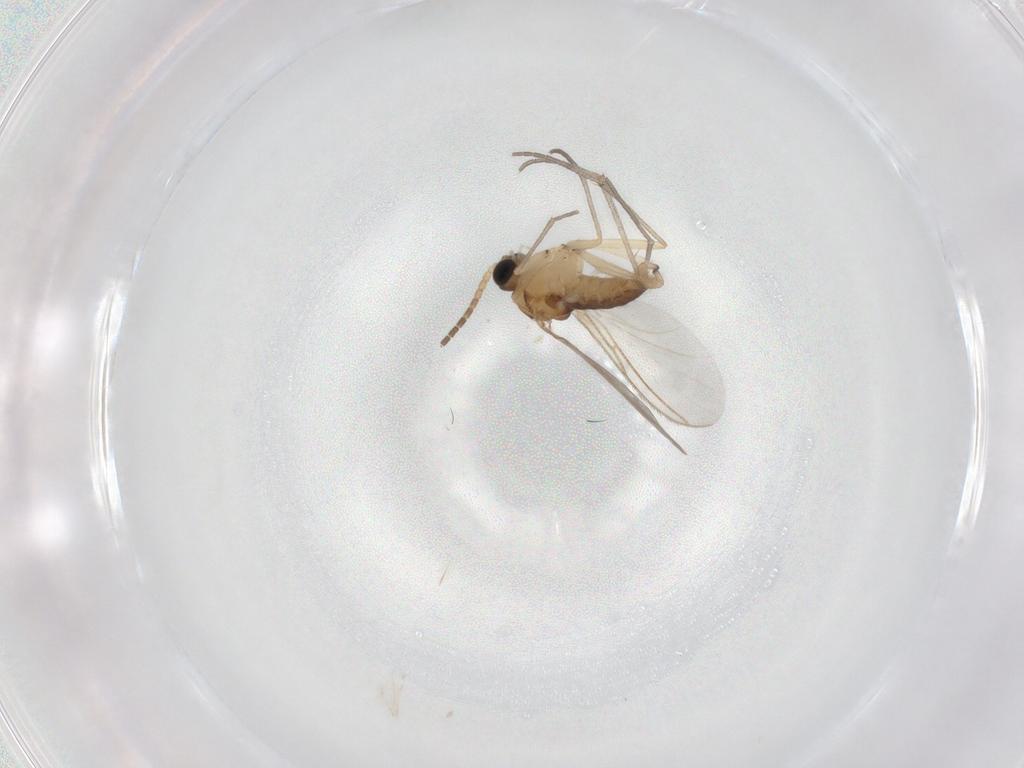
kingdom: Animalia
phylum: Arthropoda
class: Insecta
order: Diptera
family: Sciaridae
